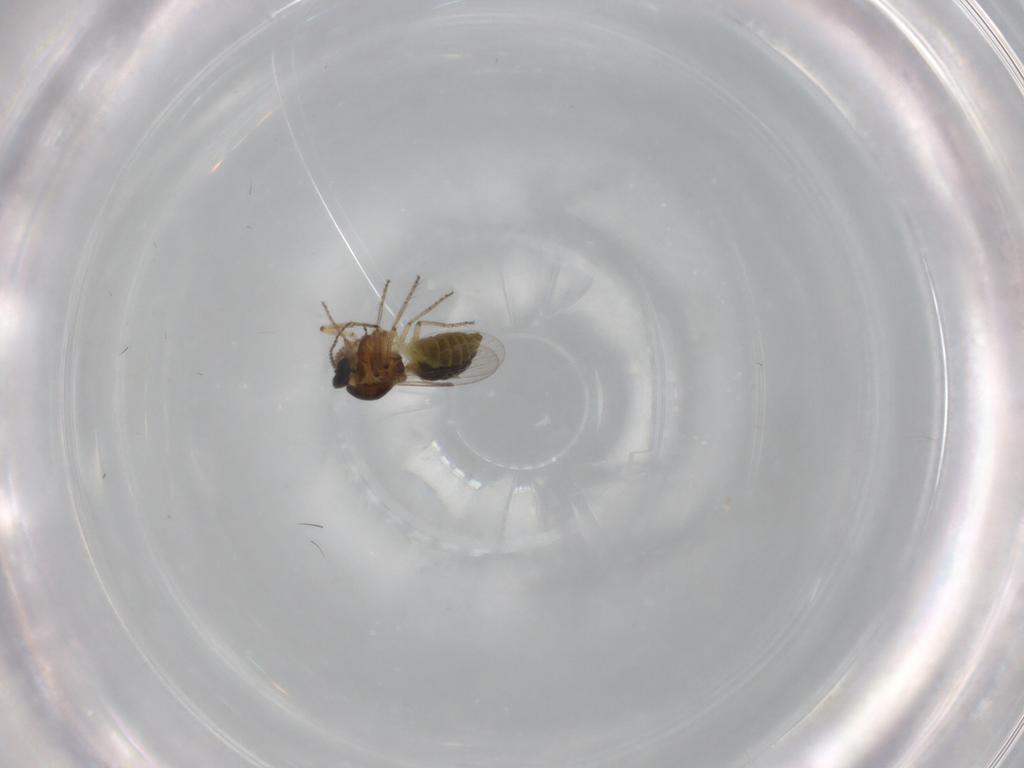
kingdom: Animalia
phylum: Arthropoda
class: Insecta
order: Diptera
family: Ceratopogonidae
